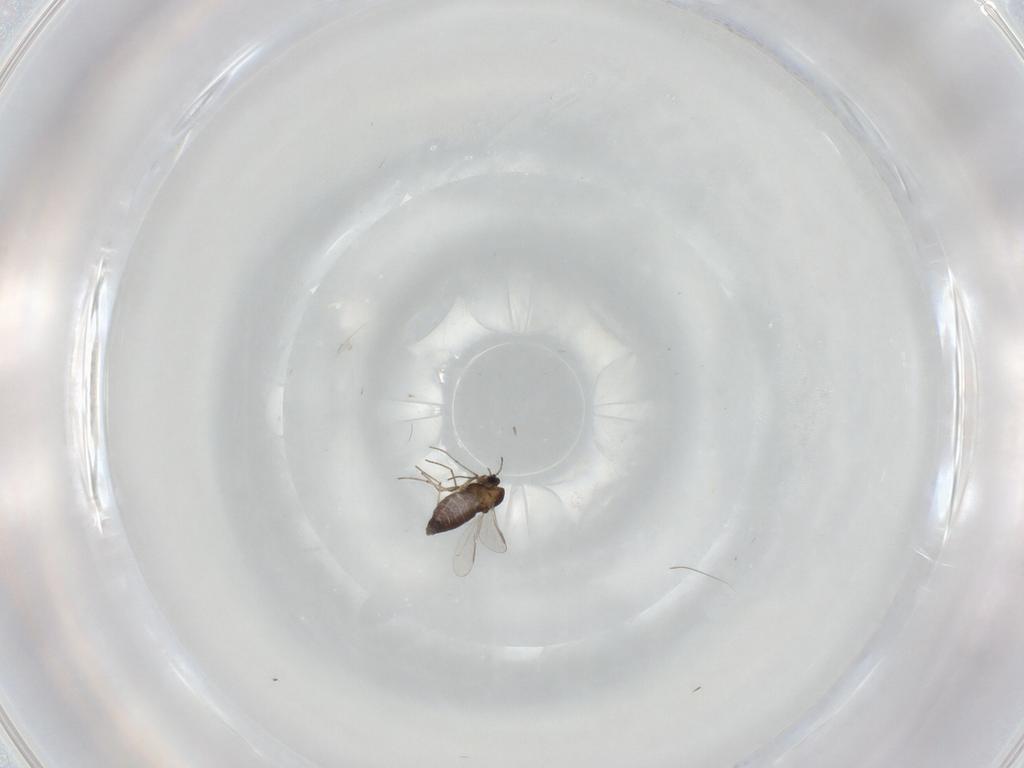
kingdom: Animalia
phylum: Arthropoda
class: Insecta
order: Diptera
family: Chironomidae
